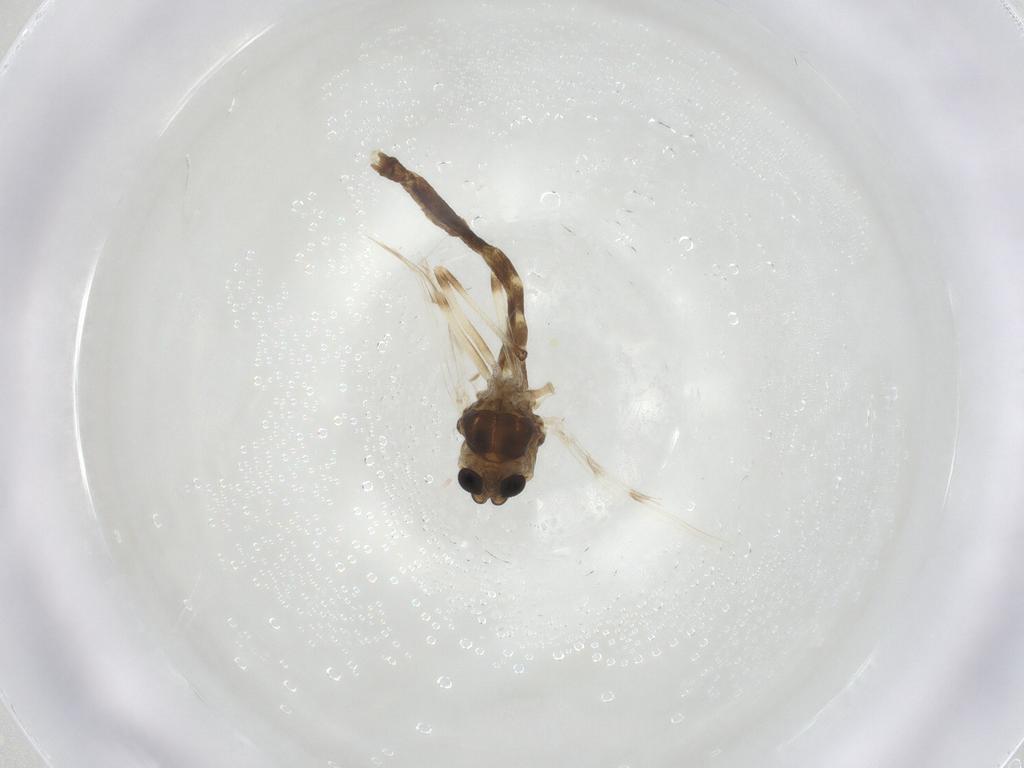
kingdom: Animalia
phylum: Arthropoda
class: Insecta
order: Diptera
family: Chironomidae
